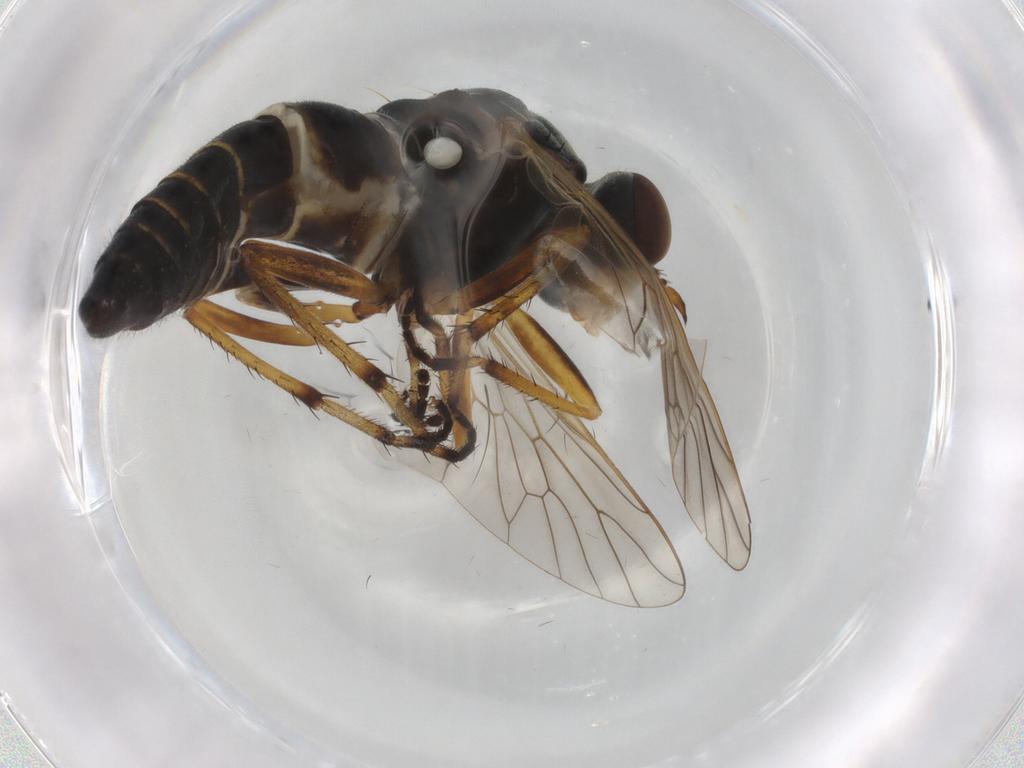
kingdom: Animalia
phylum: Arthropoda
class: Insecta
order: Diptera
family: Therevidae
